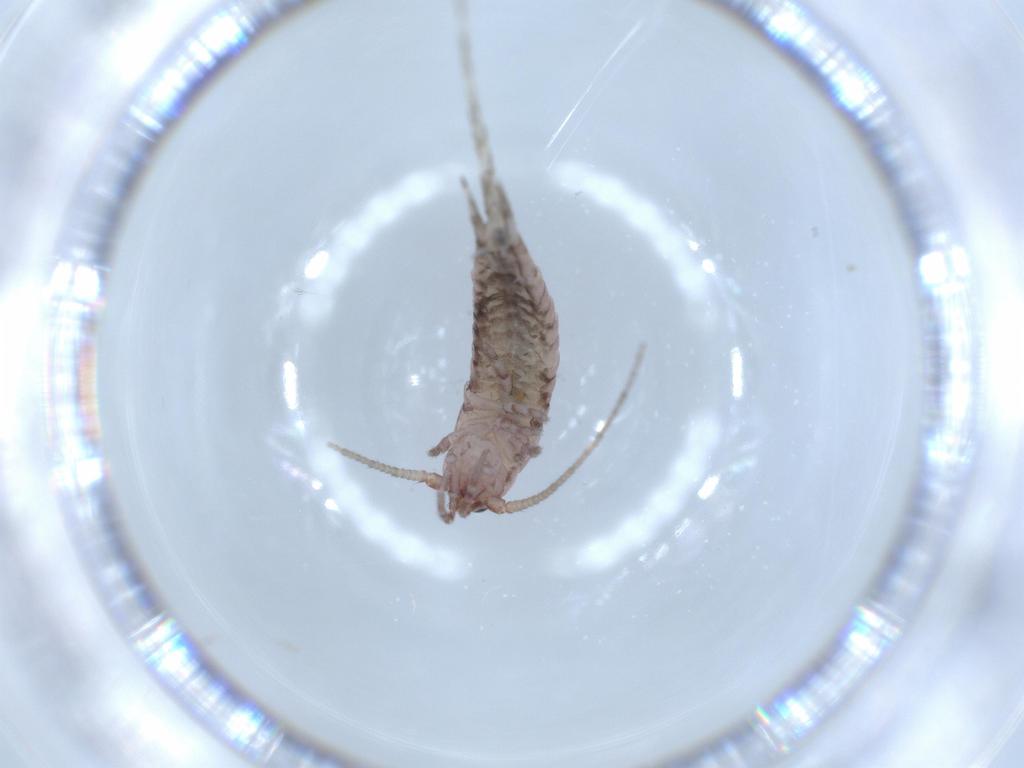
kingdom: Animalia
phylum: Arthropoda
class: Insecta
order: Archaeognatha
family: Machilidae
